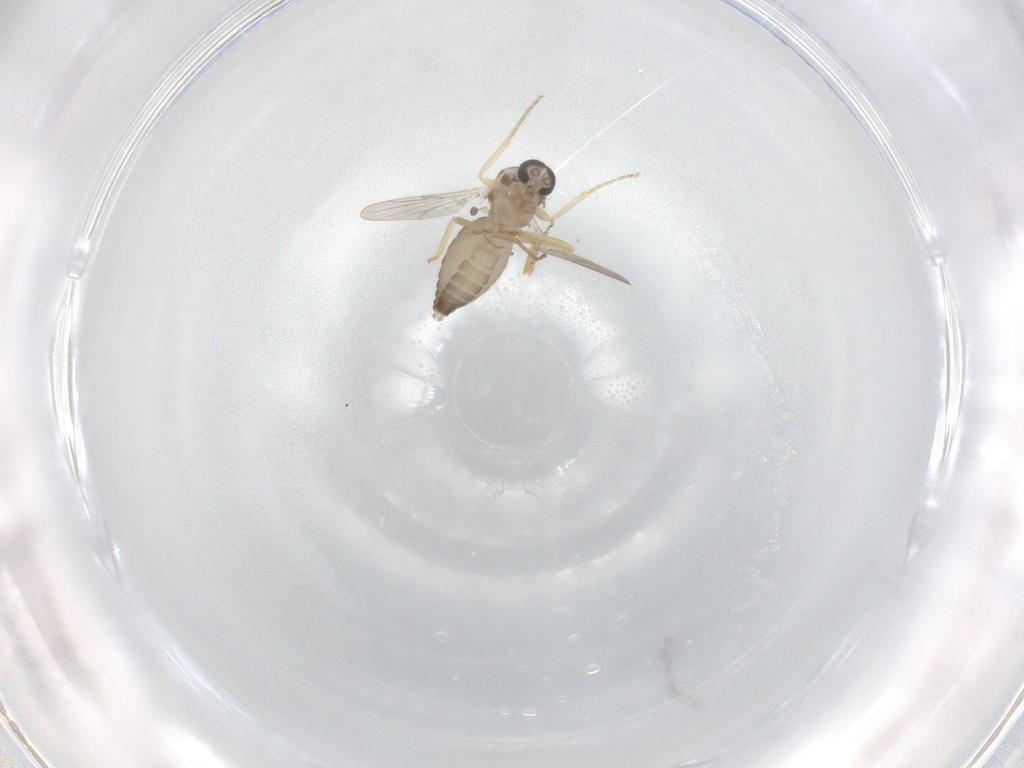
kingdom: Animalia
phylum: Arthropoda
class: Insecta
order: Diptera
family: Ceratopogonidae
